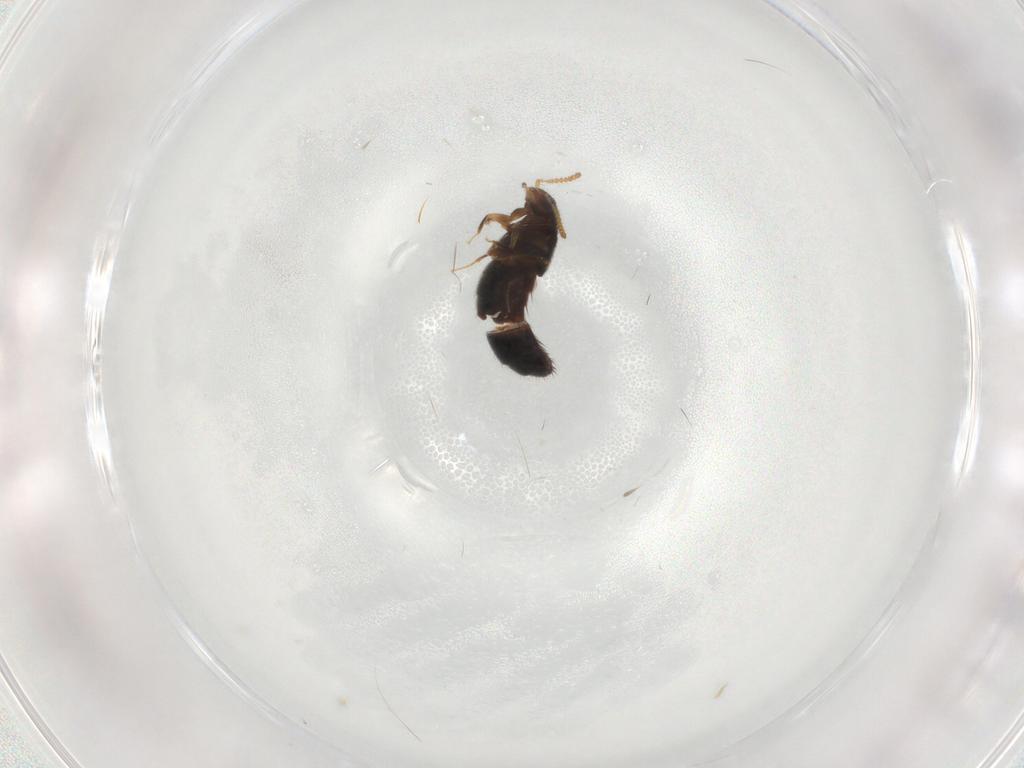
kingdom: Animalia
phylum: Arthropoda
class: Insecta
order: Coleoptera
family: Staphylinidae
